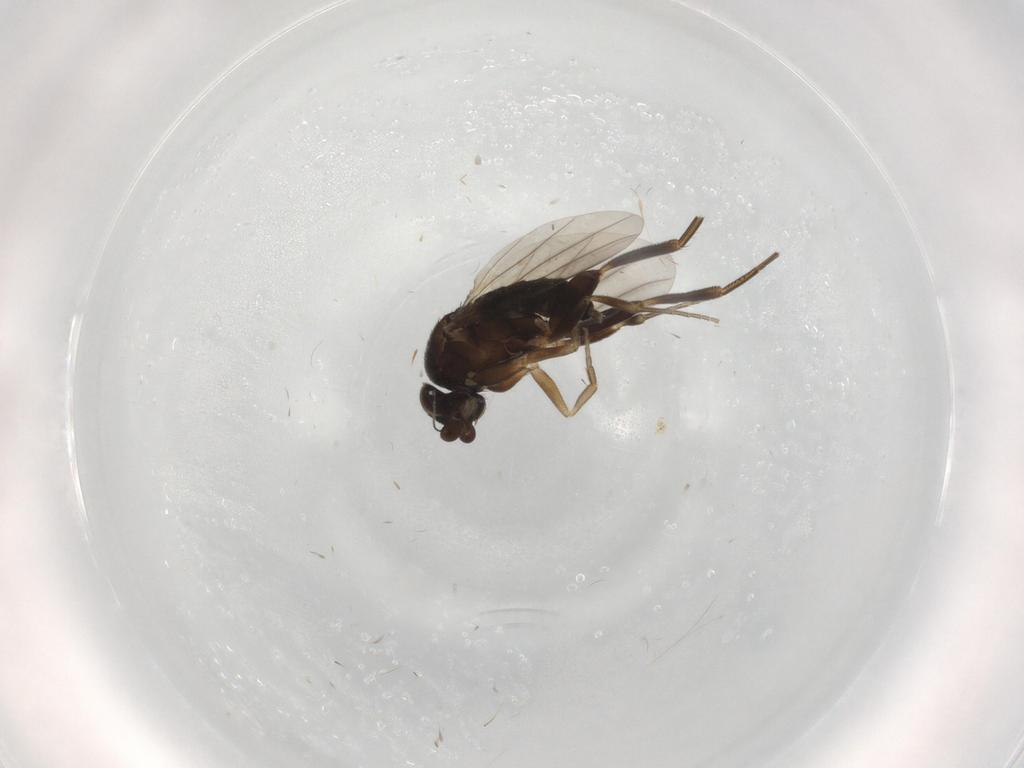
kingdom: Animalia
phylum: Arthropoda
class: Insecta
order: Diptera
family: Phoridae
